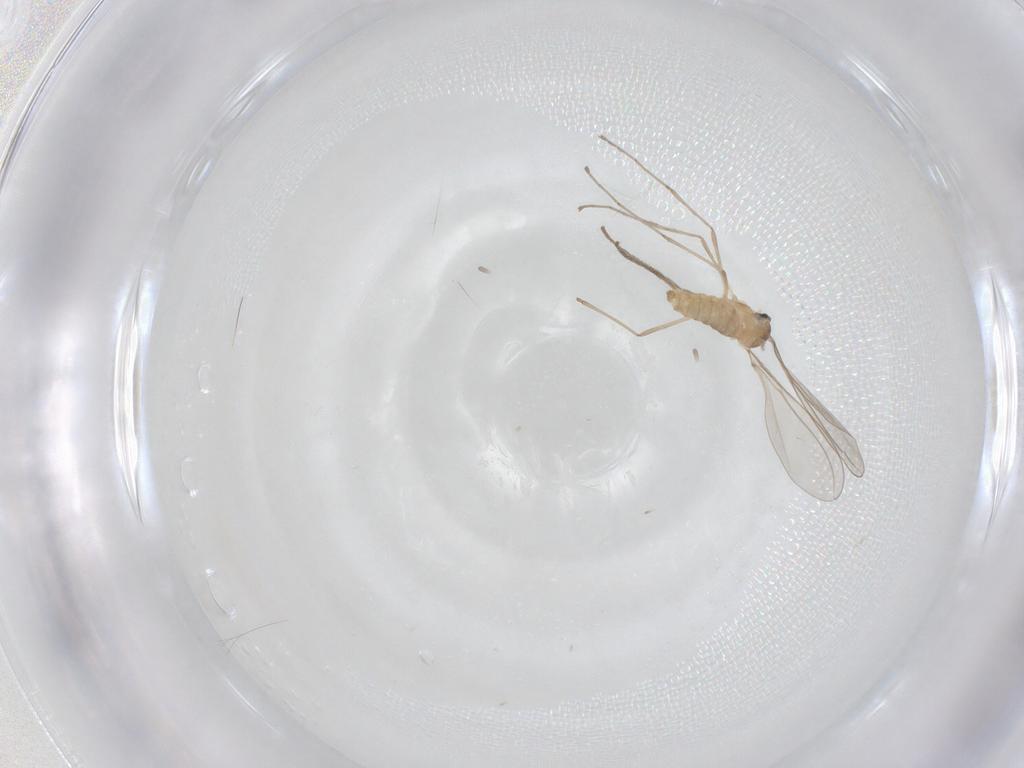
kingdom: Animalia
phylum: Arthropoda
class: Insecta
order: Diptera
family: Cecidomyiidae
